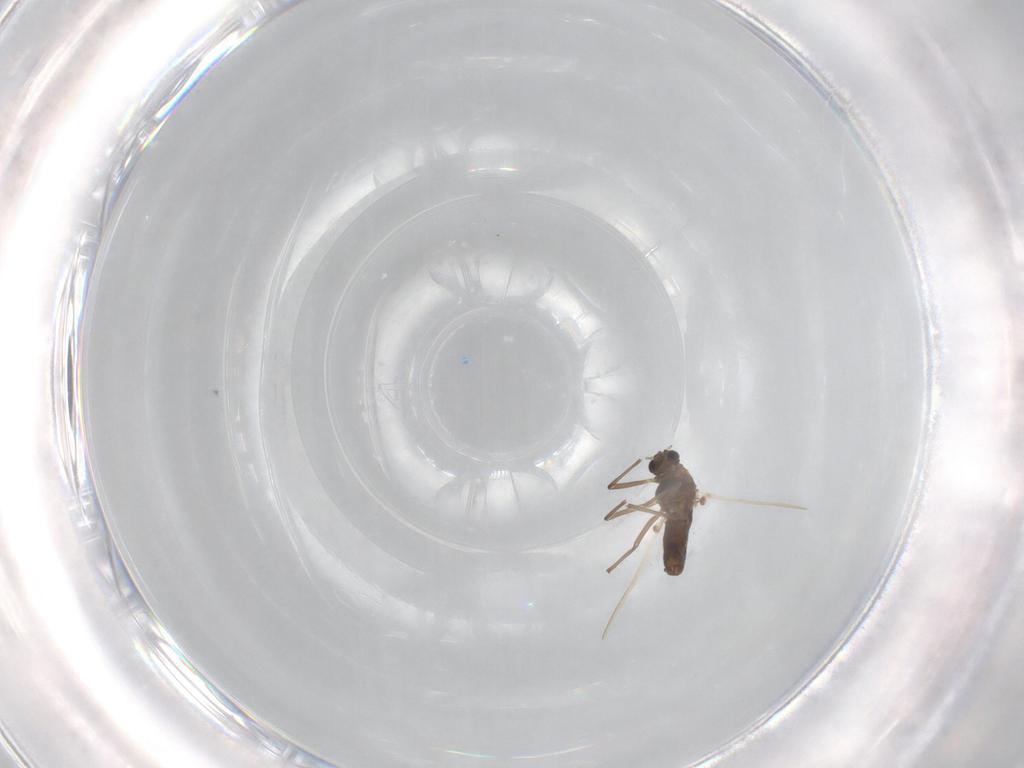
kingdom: Animalia
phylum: Arthropoda
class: Insecta
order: Diptera
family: Chironomidae
